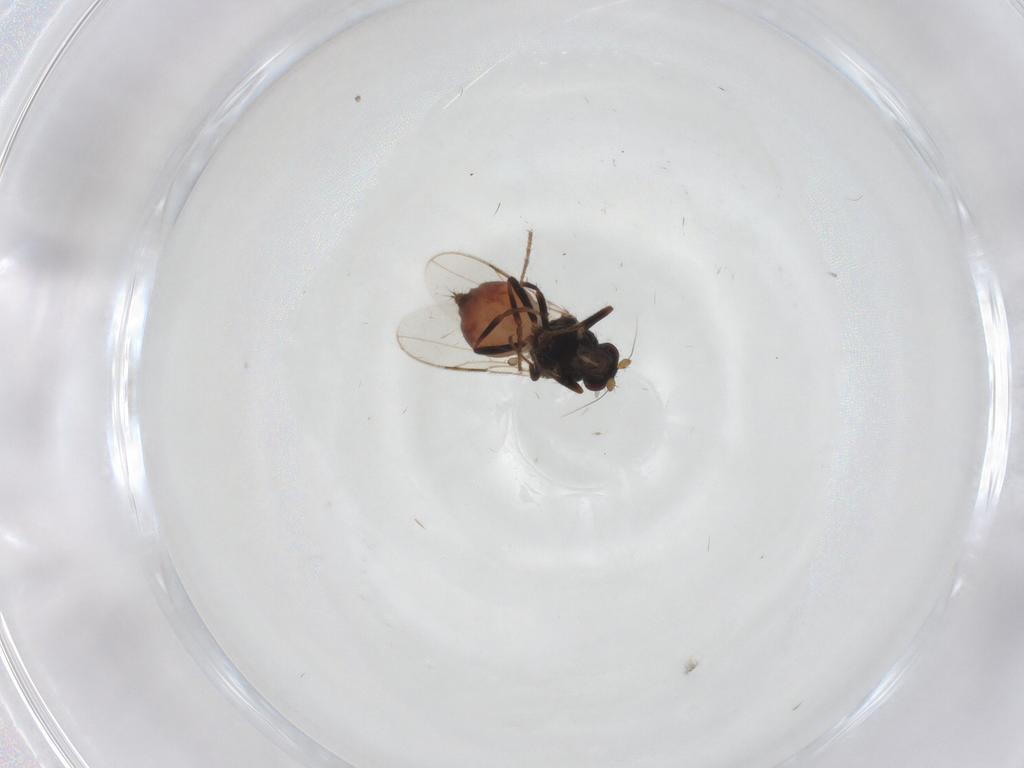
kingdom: Animalia
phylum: Arthropoda
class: Insecta
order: Diptera
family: Sphaeroceridae
